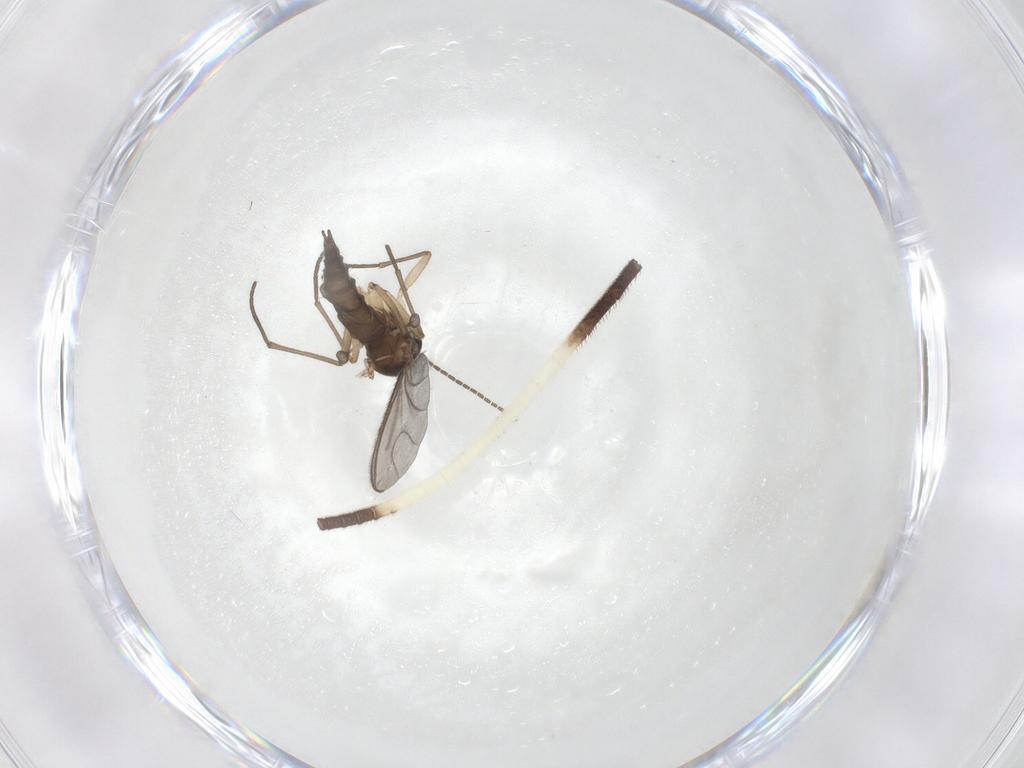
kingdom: Animalia
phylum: Arthropoda
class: Insecta
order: Diptera
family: Sciaridae
